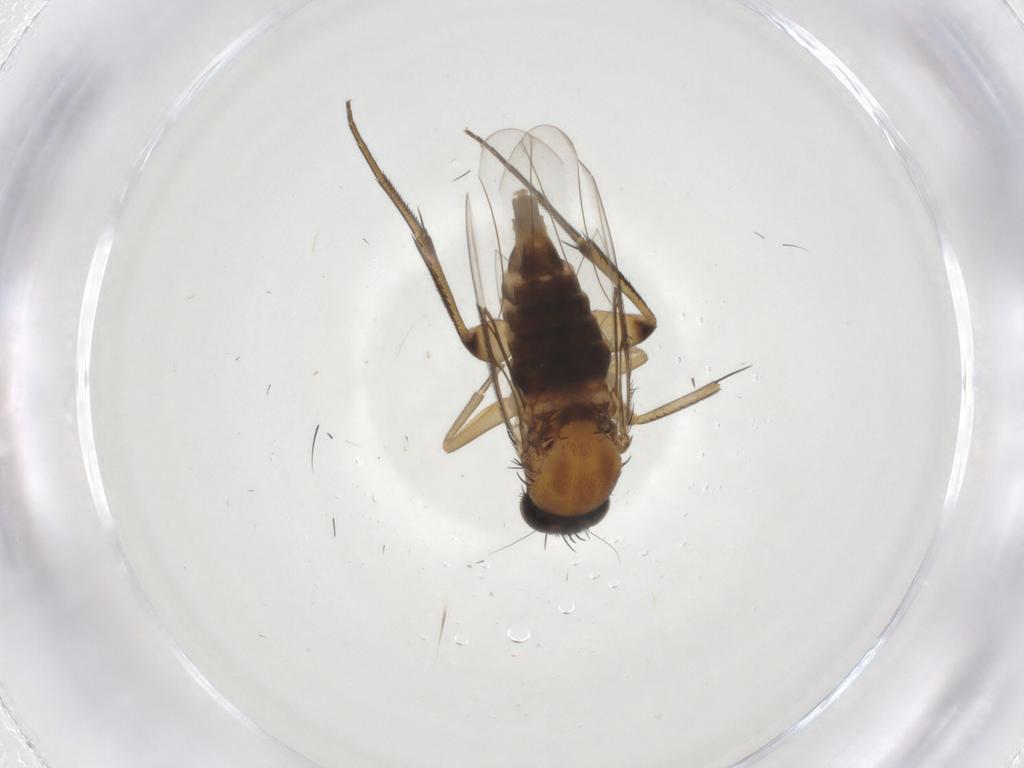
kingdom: Animalia
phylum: Arthropoda
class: Insecta
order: Diptera
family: Phoridae
